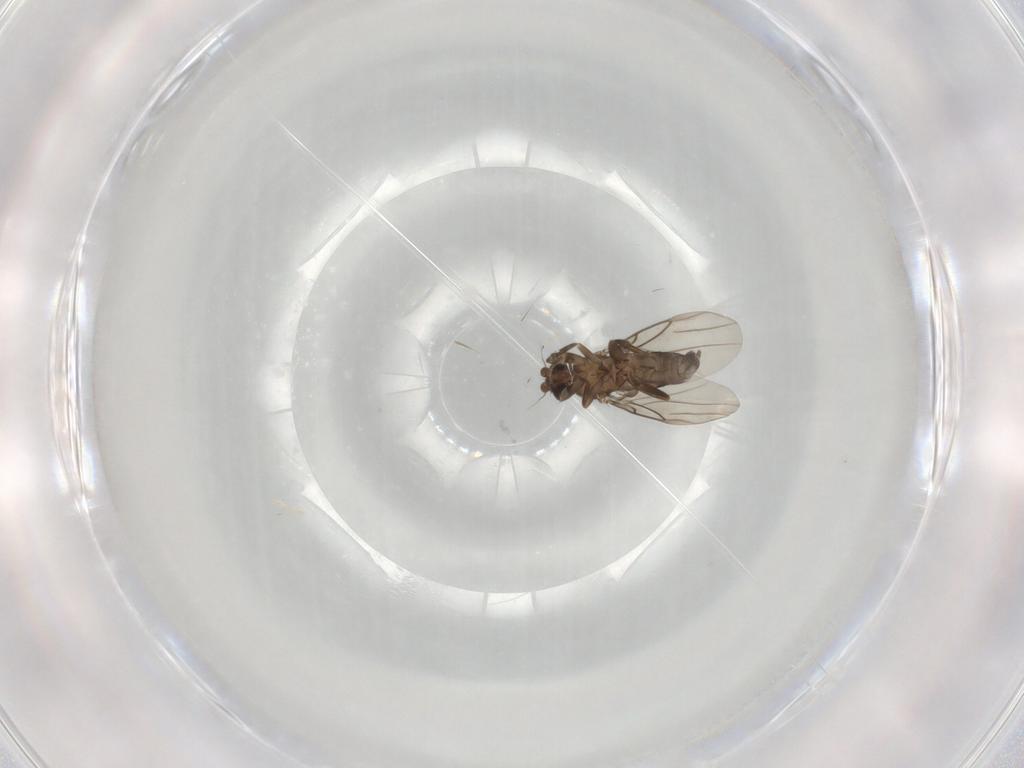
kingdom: Animalia
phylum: Arthropoda
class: Insecta
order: Diptera
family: Phoridae
